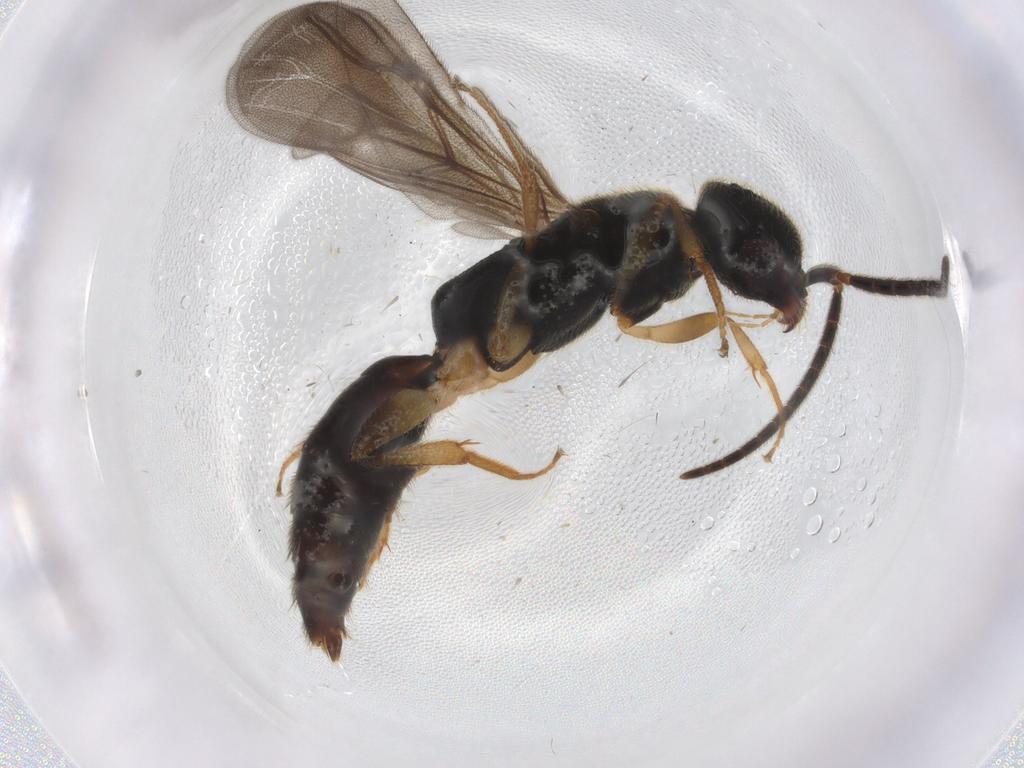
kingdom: Animalia
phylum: Arthropoda
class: Insecta
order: Hymenoptera
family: Bethylidae
